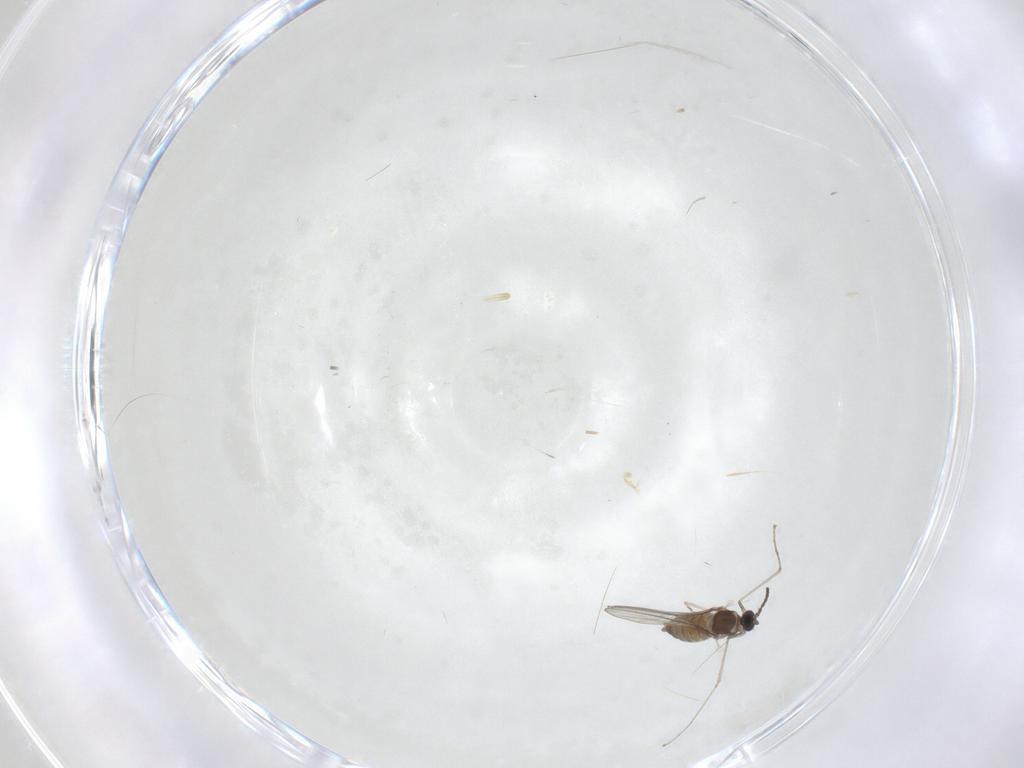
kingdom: Animalia
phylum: Arthropoda
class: Insecta
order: Diptera
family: Cecidomyiidae
